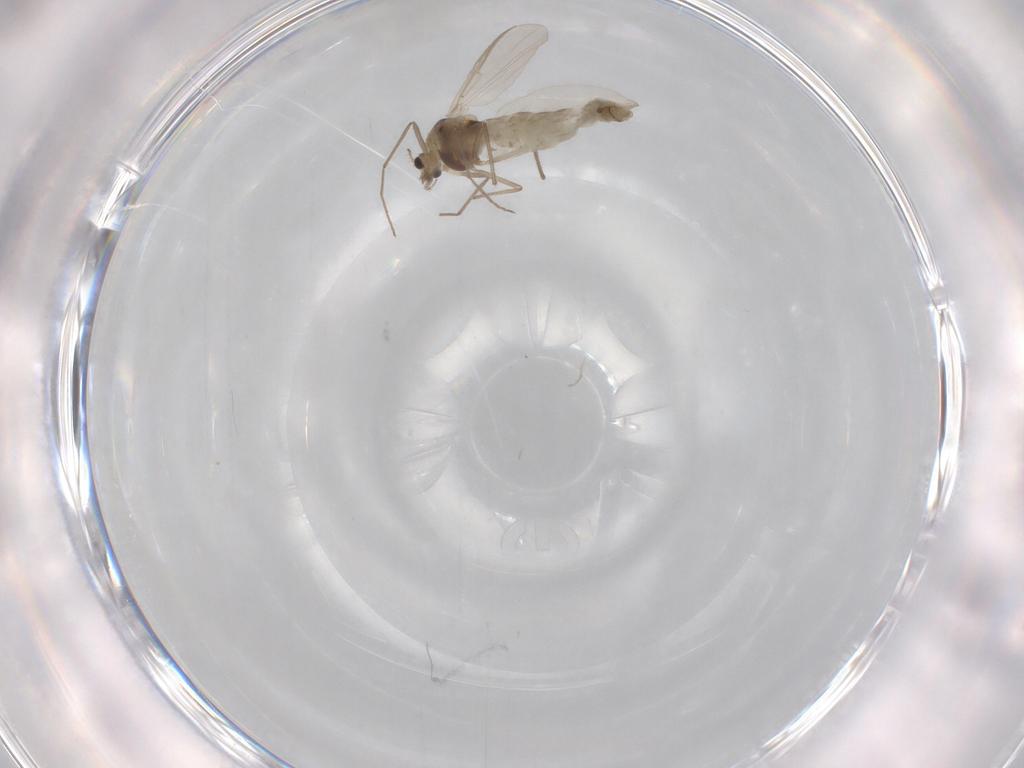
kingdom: Animalia
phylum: Arthropoda
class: Insecta
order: Diptera
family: Chironomidae
